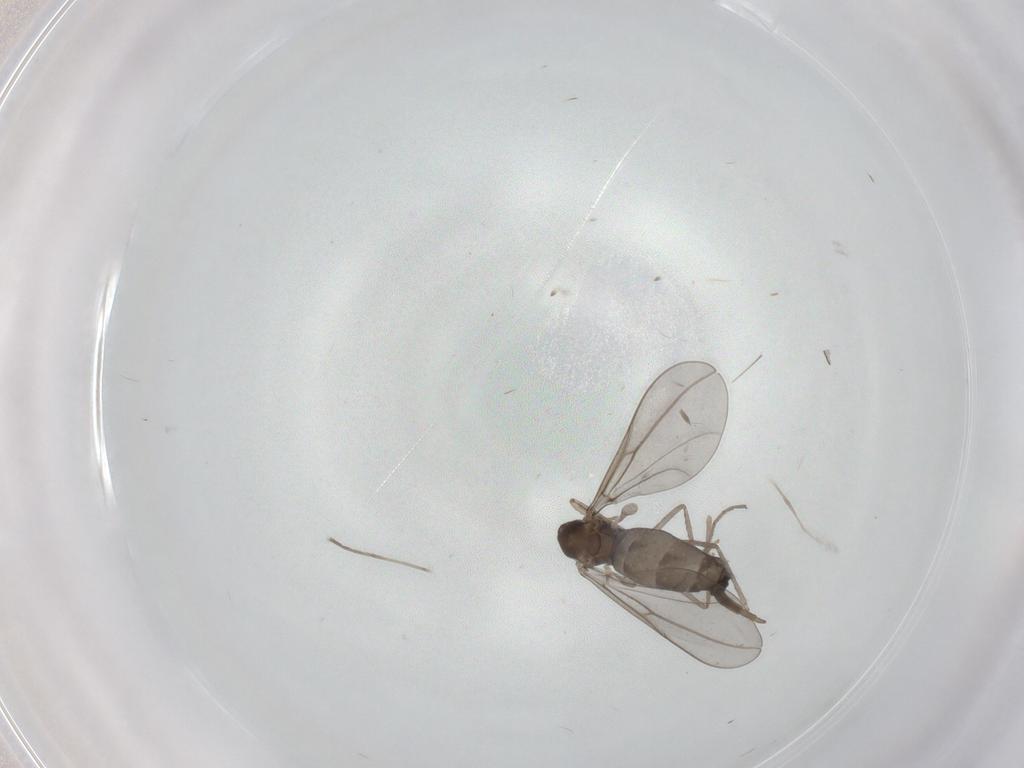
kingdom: Animalia
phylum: Arthropoda
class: Insecta
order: Diptera
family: Cecidomyiidae
